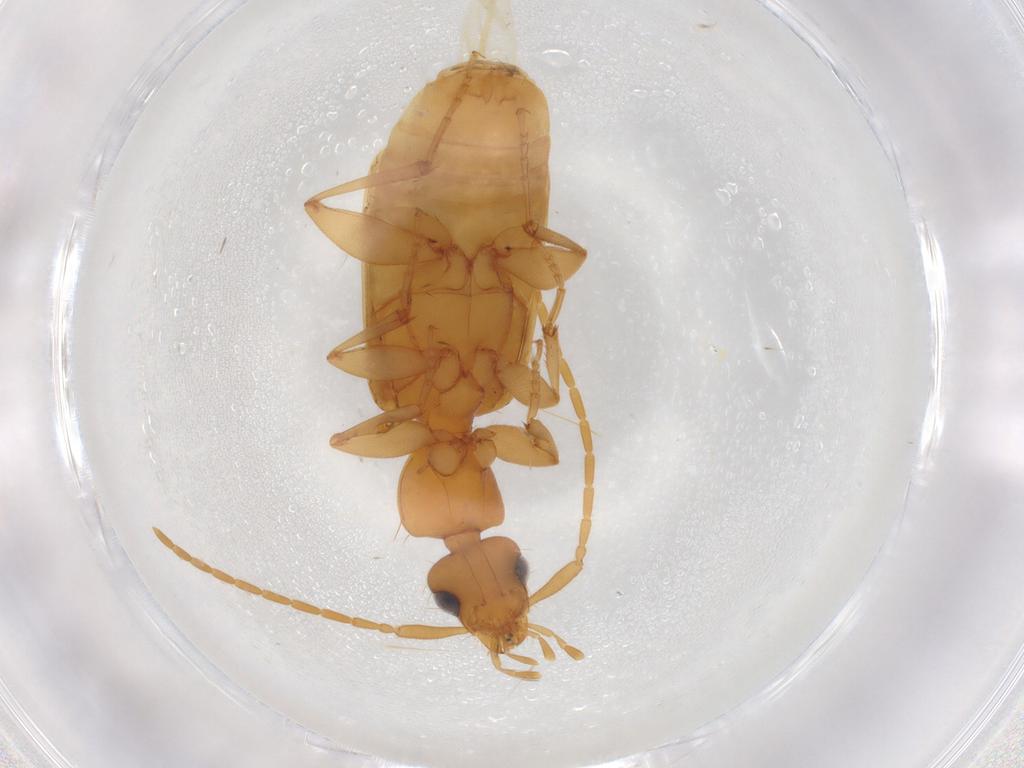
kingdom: Animalia
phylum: Arthropoda
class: Insecta
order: Coleoptera
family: Carabidae
